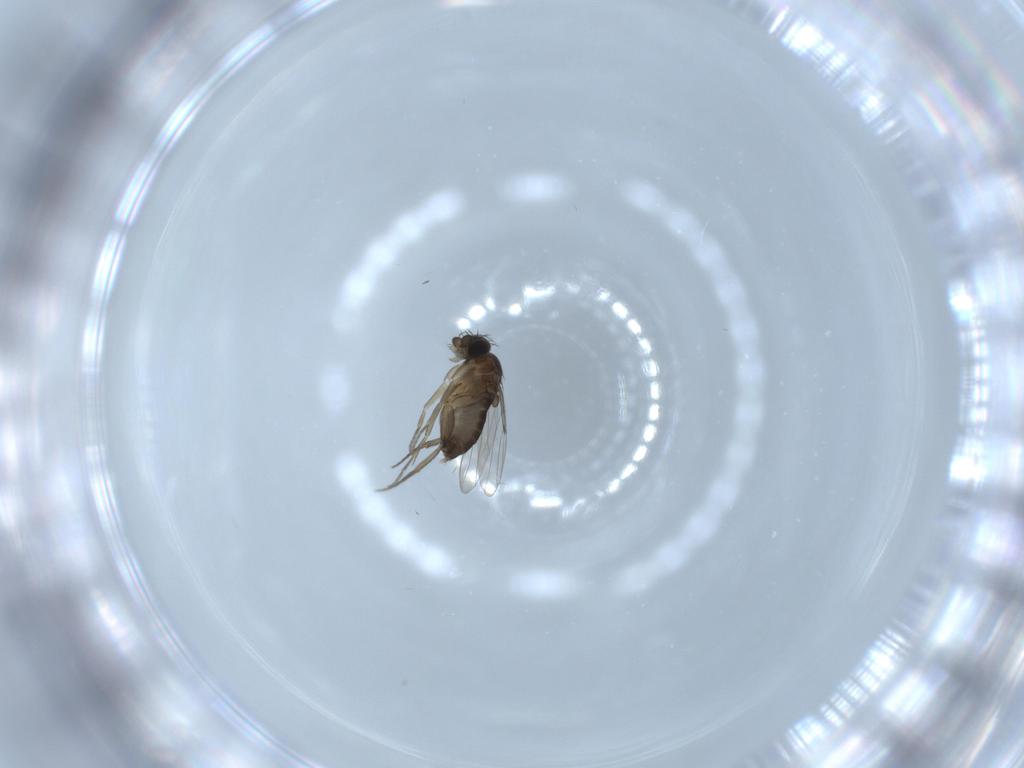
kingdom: Animalia
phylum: Arthropoda
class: Insecta
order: Diptera
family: Phoridae
